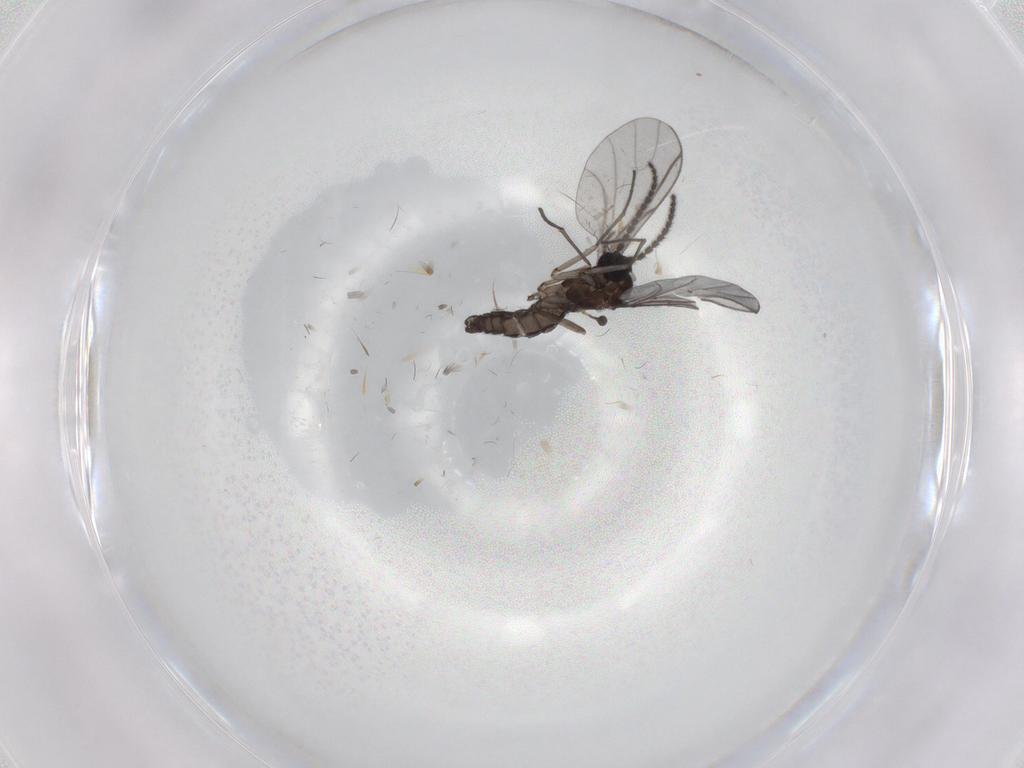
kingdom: Animalia
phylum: Arthropoda
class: Insecta
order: Diptera
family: Sciaridae
